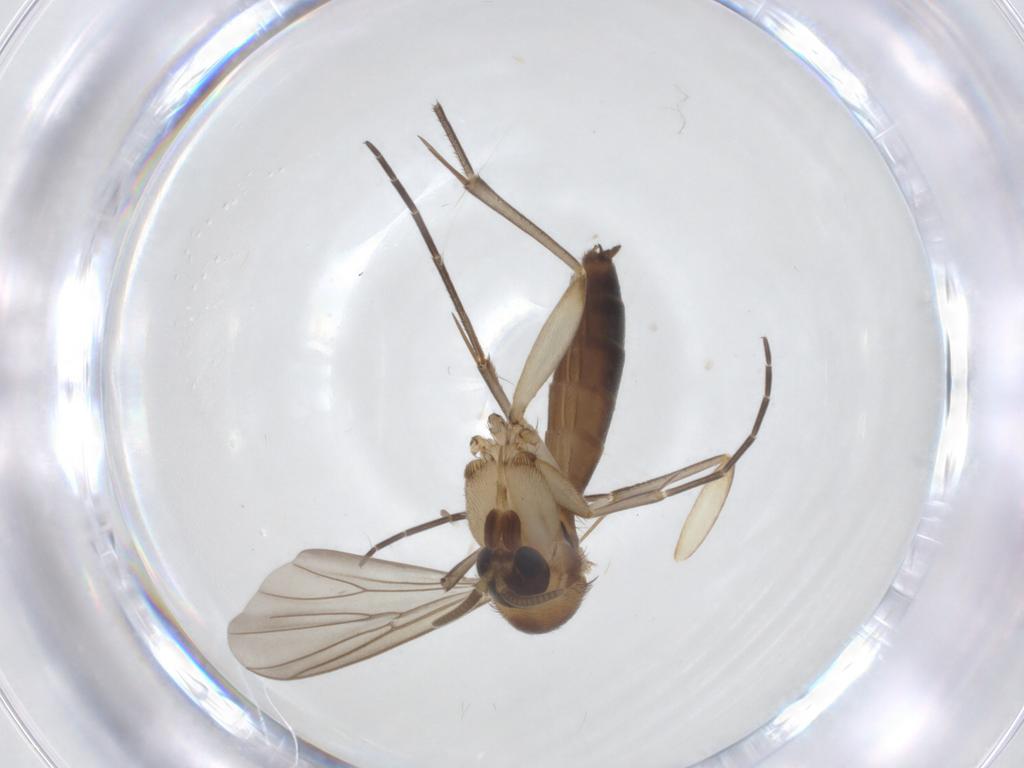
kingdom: Animalia
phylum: Arthropoda
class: Insecta
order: Diptera
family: Mycetophilidae
